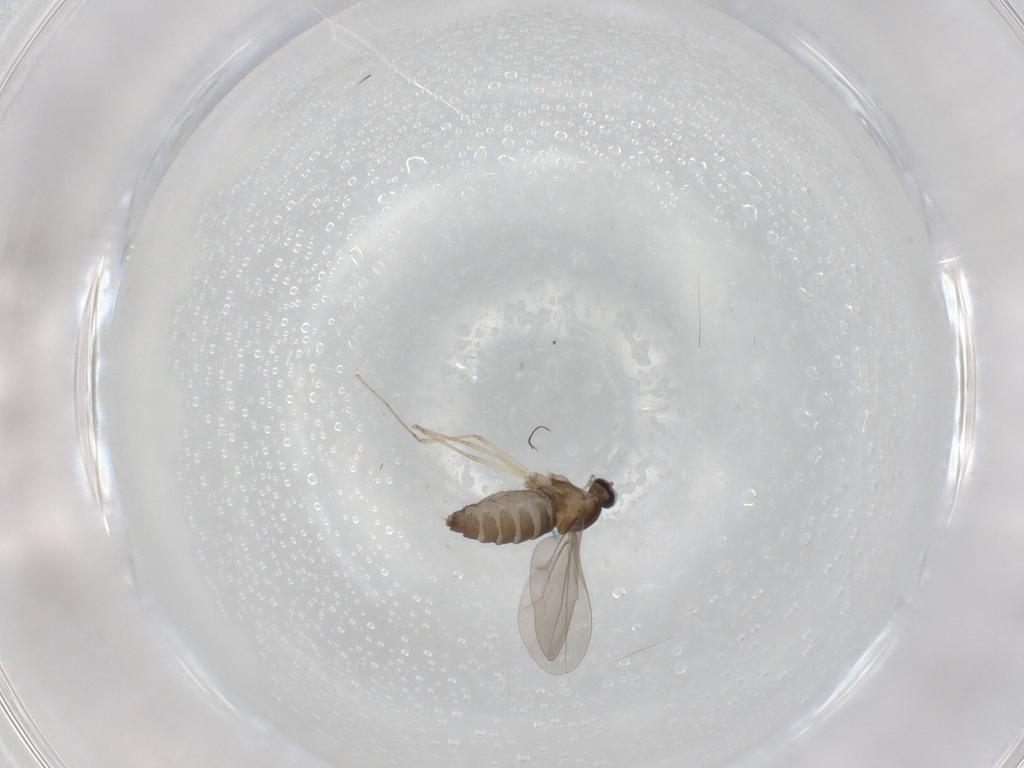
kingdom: Animalia
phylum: Arthropoda
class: Insecta
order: Diptera
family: Cecidomyiidae
